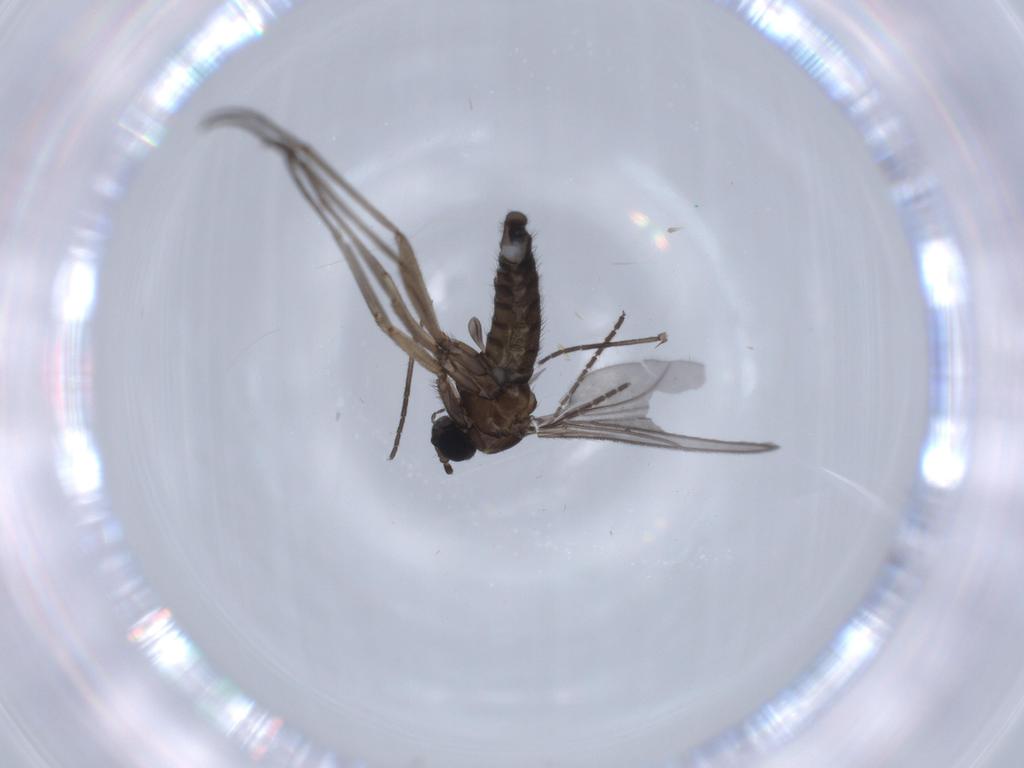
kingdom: Animalia
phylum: Arthropoda
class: Insecta
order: Diptera
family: Sciaridae
